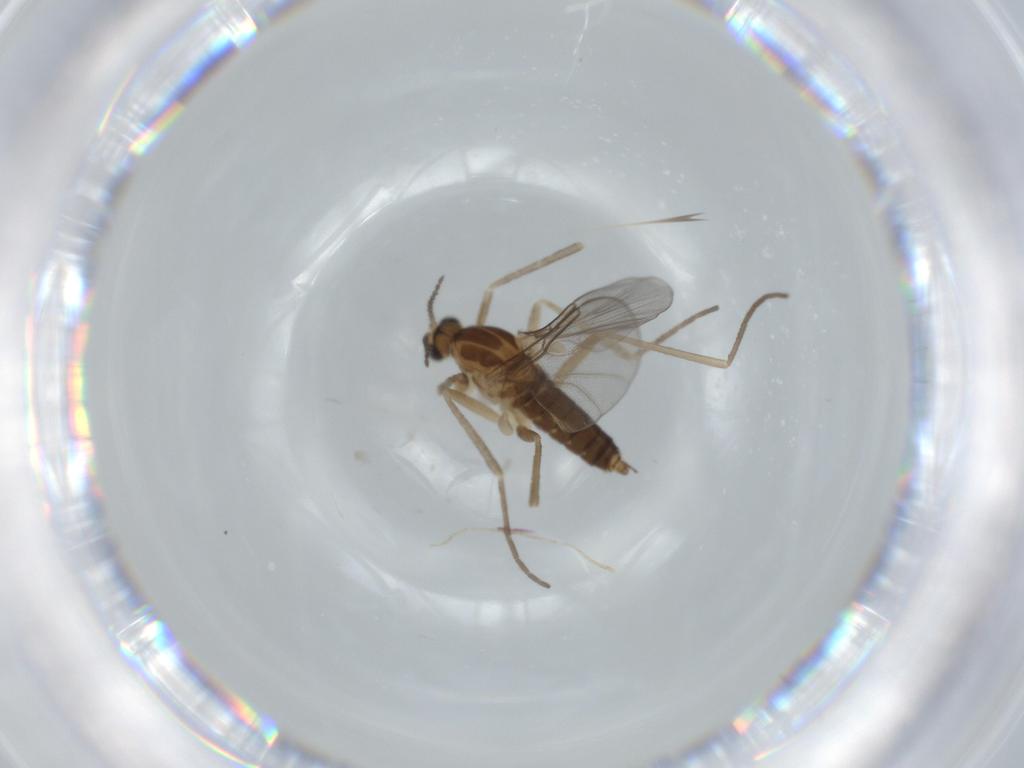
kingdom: Animalia
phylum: Arthropoda
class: Insecta
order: Diptera
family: Cecidomyiidae
